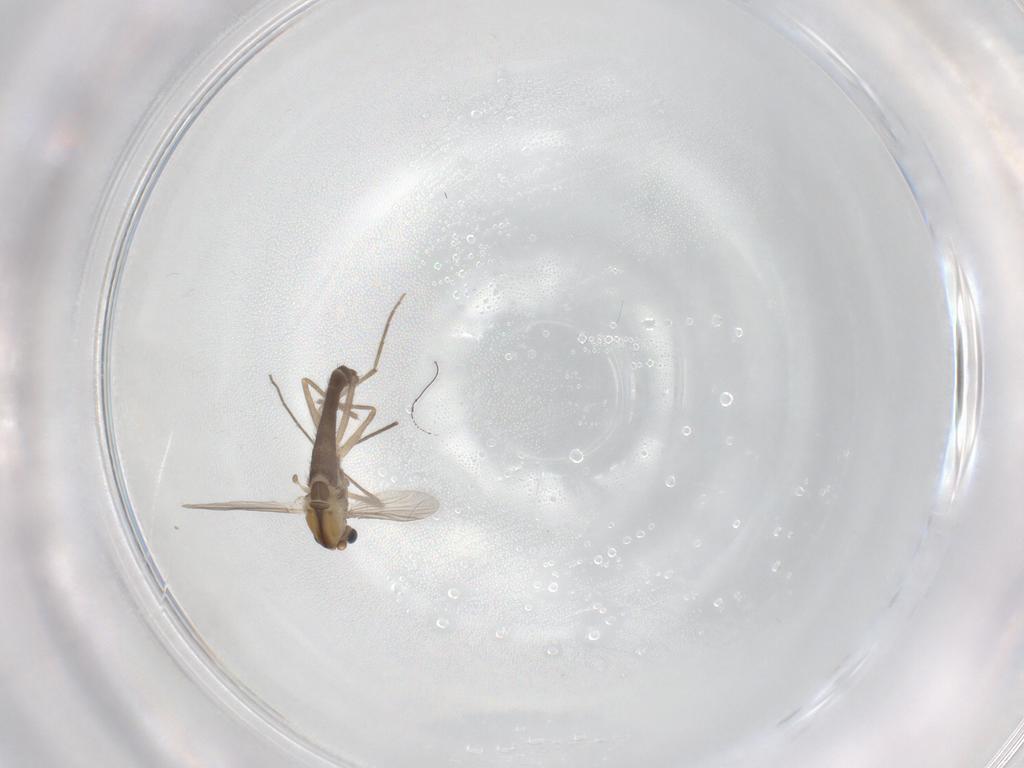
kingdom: Animalia
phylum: Arthropoda
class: Insecta
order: Diptera
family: Chironomidae
